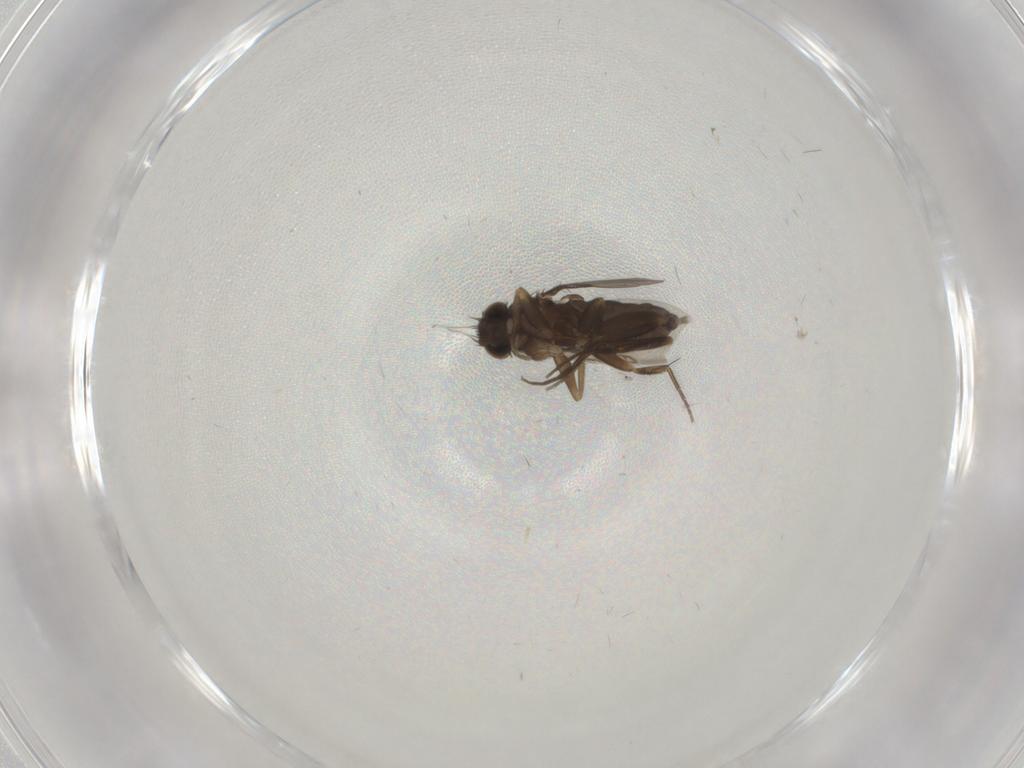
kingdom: Animalia
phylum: Arthropoda
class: Insecta
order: Diptera
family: Phoridae
